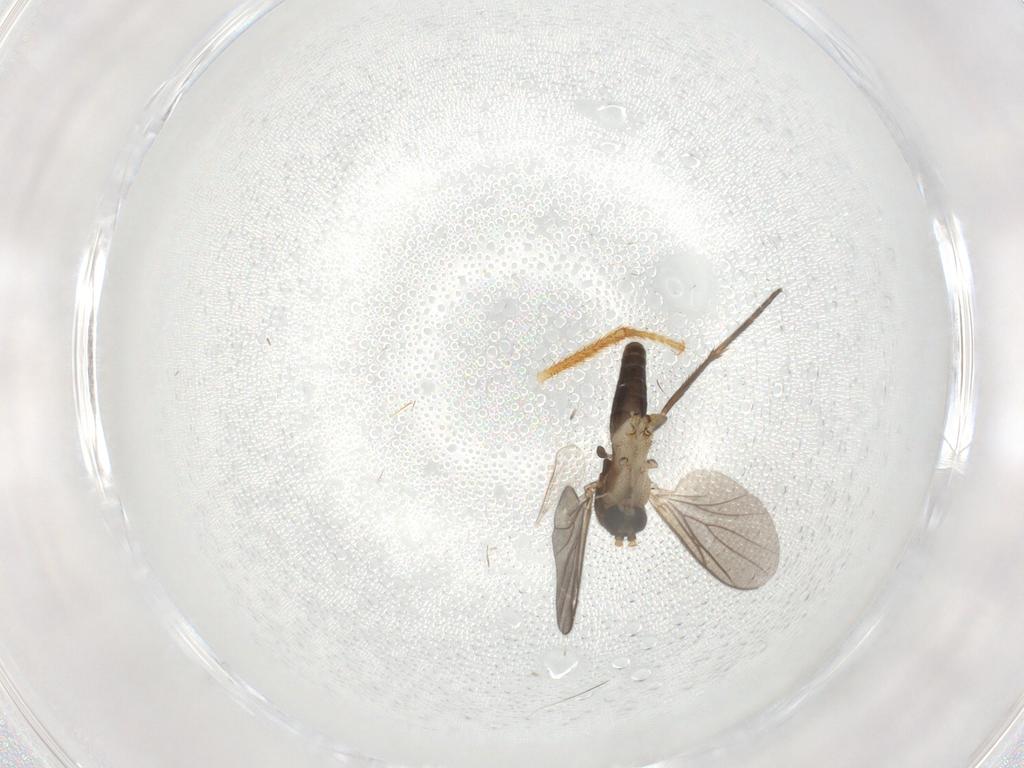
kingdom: Animalia
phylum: Arthropoda
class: Insecta
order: Diptera
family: Mycetophilidae
